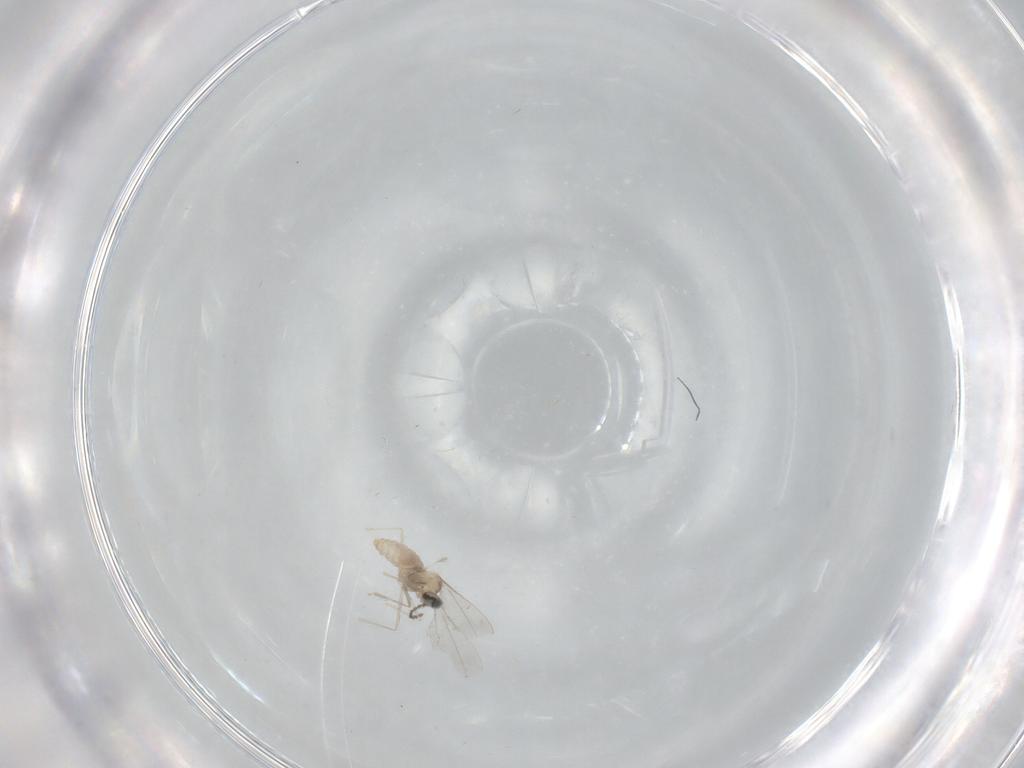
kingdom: Animalia
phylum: Arthropoda
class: Insecta
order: Diptera
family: Cecidomyiidae
